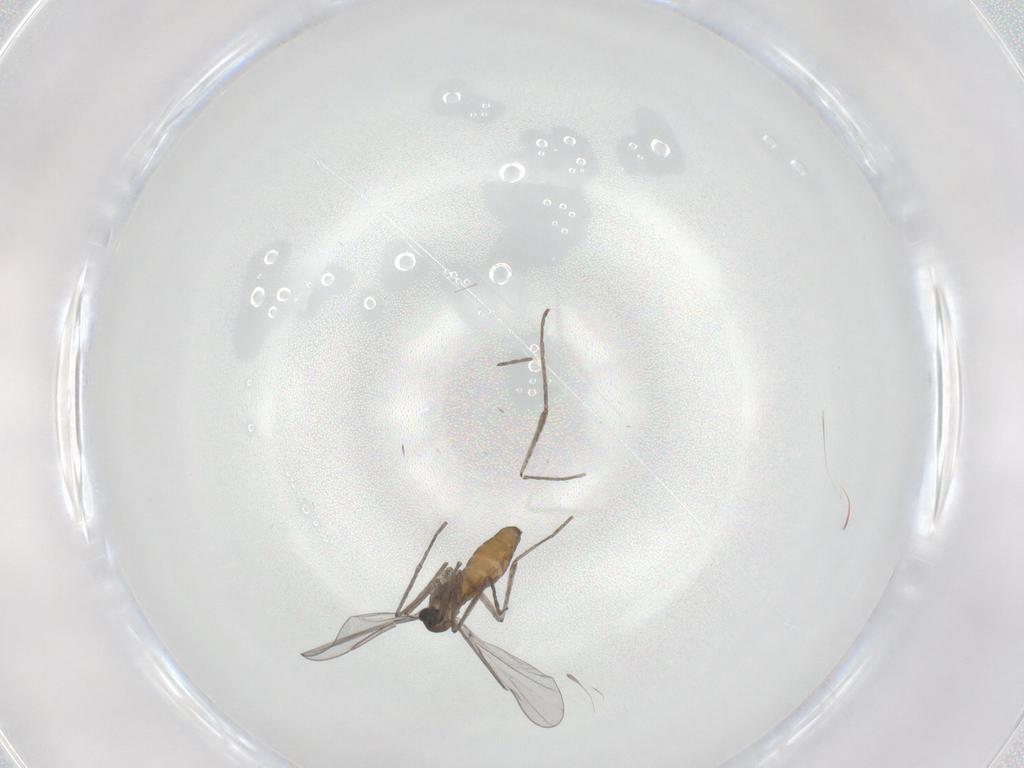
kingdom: Animalia
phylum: Arthropoda
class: Insecta
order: Diptera
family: Cecidomyiidae
